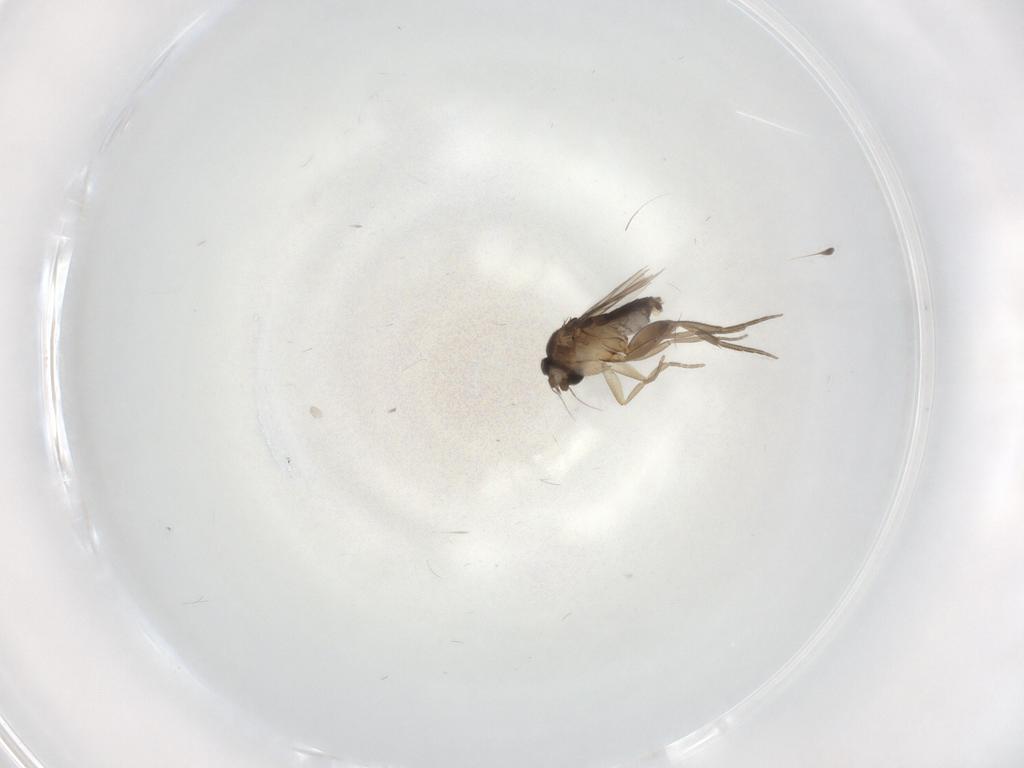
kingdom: Animalia
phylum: Arthropoda
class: Insecta
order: Diptera
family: Phoridae
